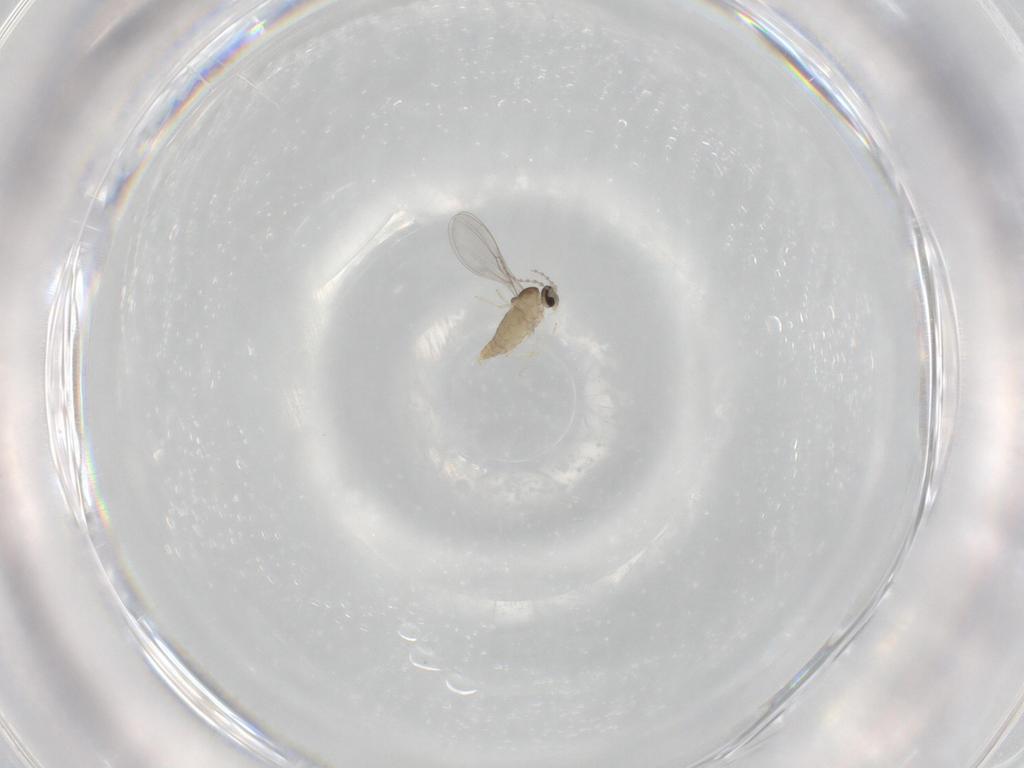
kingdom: Animalia
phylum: Arthropoda
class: Insecta
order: Diptera
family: Cecidomyiidae
